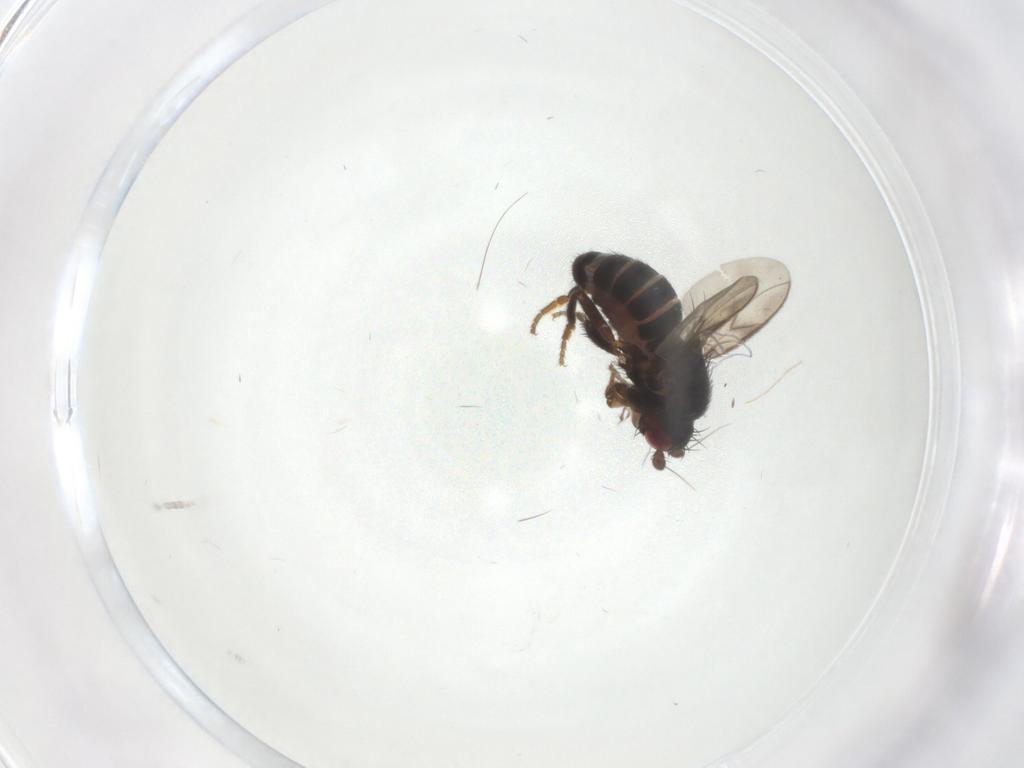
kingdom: Animalia
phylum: Arthropoda
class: Insecta
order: Diptera
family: Sphaeroceridae
